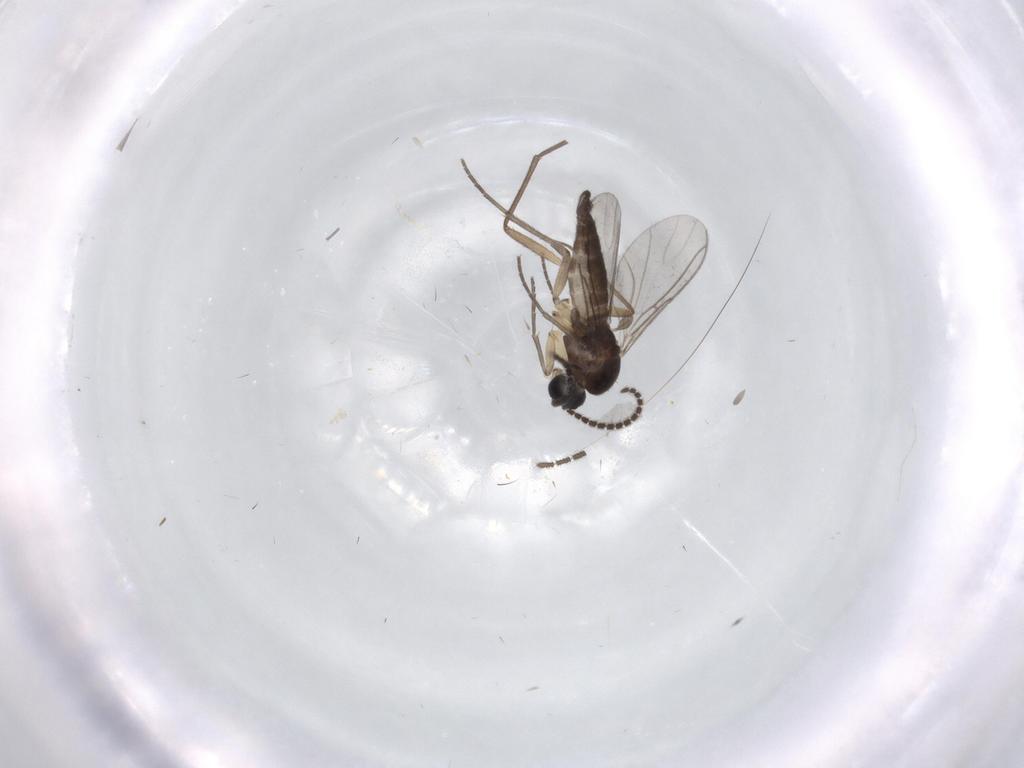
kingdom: Animalia
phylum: Arthropoda
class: Insecta
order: Diptera
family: Sciaridae
